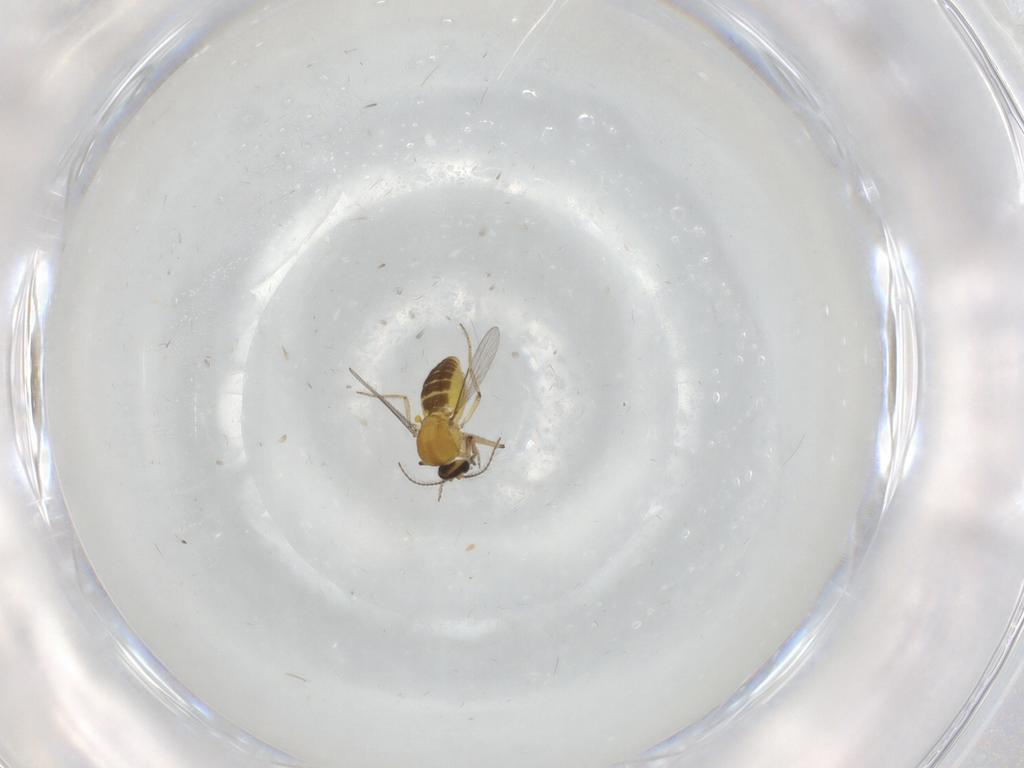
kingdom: Animalia
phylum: Arthropoda
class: Insecta
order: Diptera
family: Ceratopogonidae
